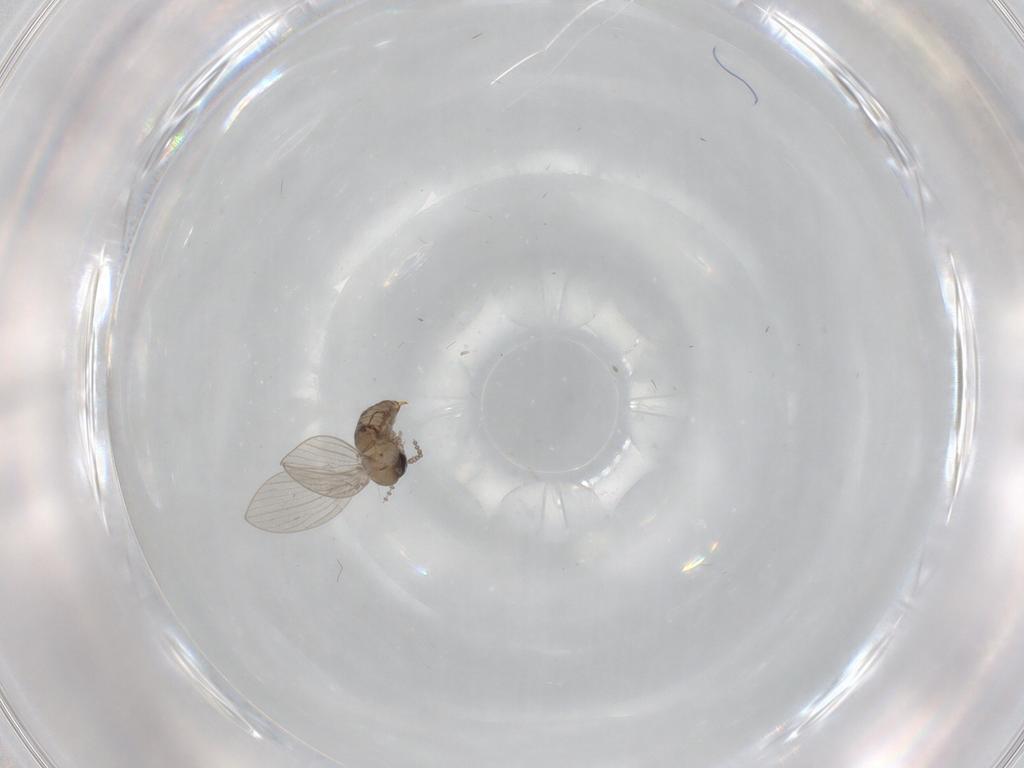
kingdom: Animalia
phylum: Arthropoda
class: Insecta
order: Diptera
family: Psychodidae
